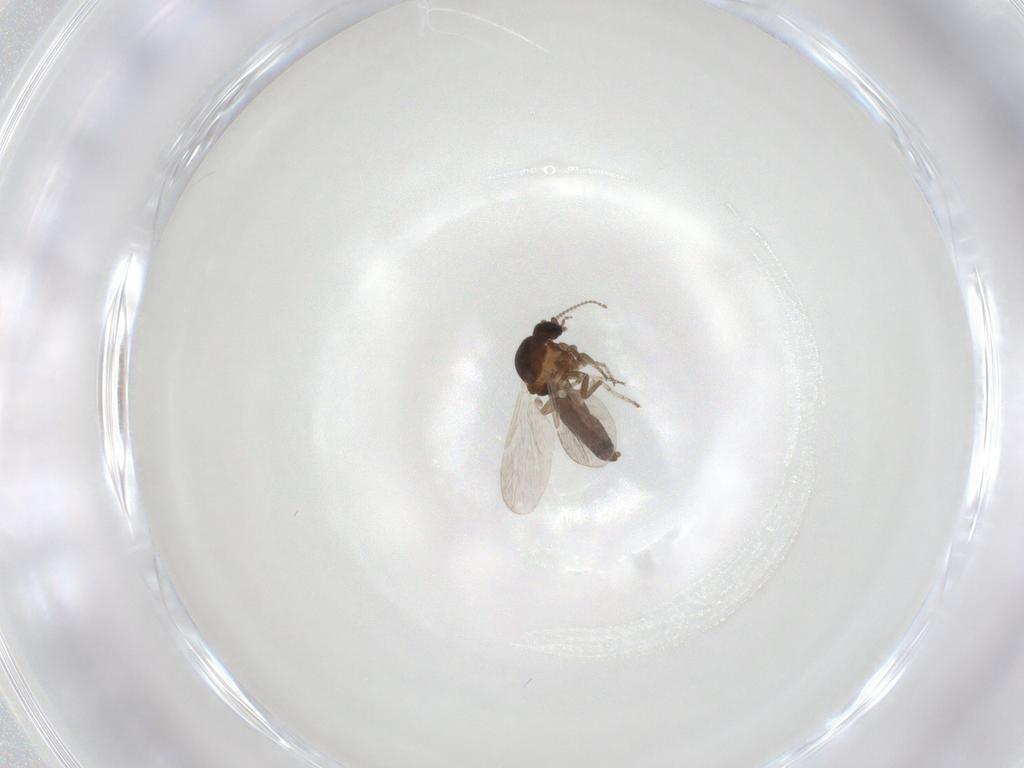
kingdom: Animalia
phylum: Arthropoda
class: Insecta
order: Diptera
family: Ceratopogonidae
